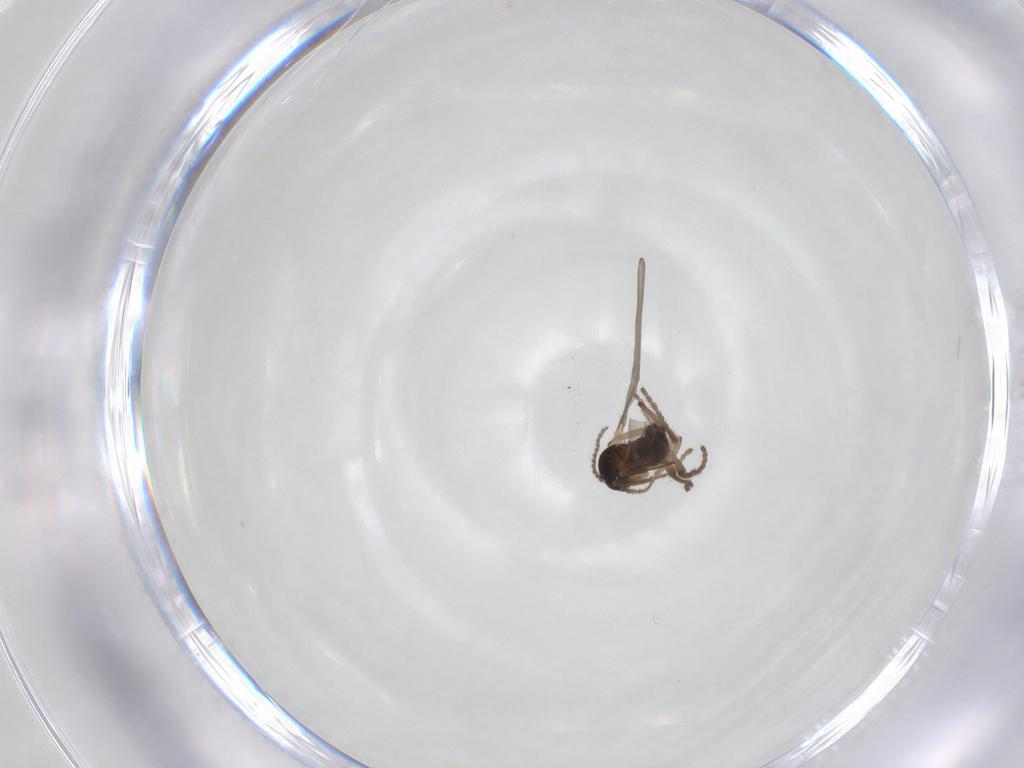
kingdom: Animalia
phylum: Arthropoda
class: Insecta
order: Diptera
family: Cecidomyiidae
